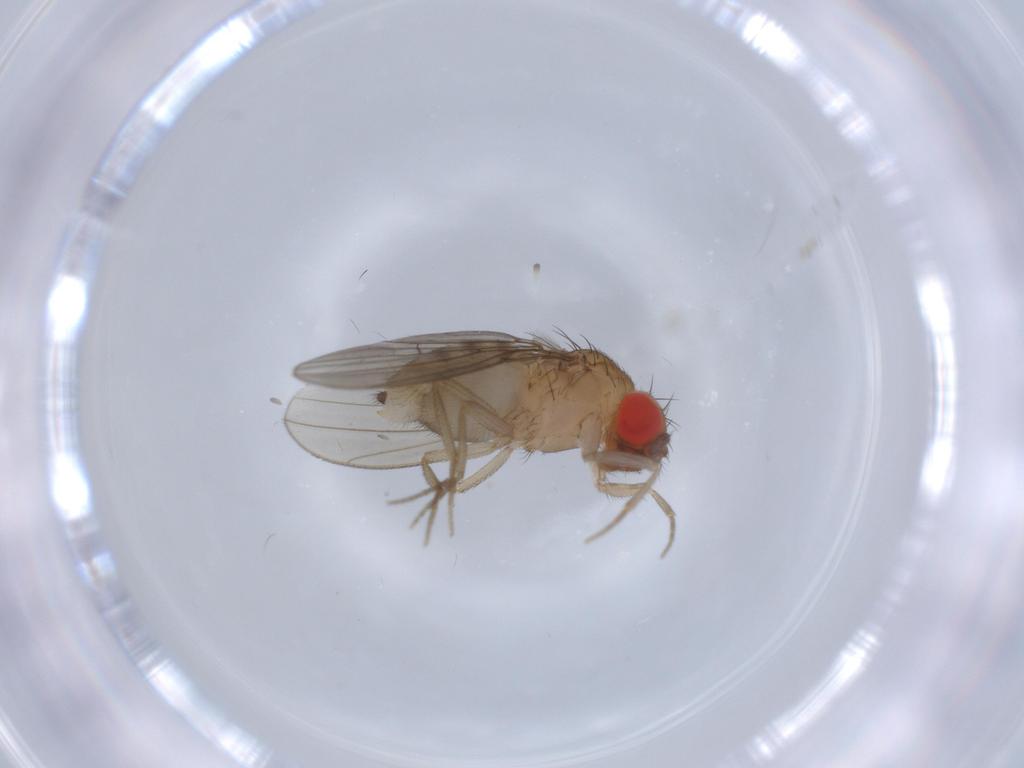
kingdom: Animalia
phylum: Arthropoda
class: Insecta
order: Diptera
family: Drosophilidae
